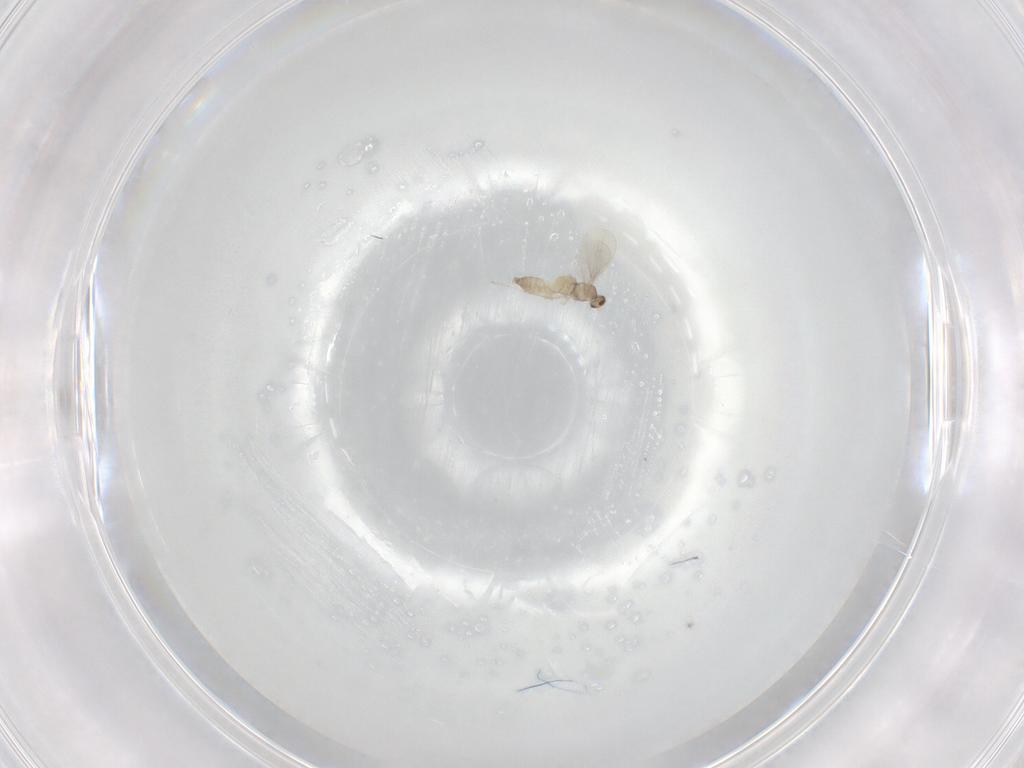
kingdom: Animalia
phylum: Arthropoda
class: Insecta
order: Diptera
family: Cecidomyiidae
